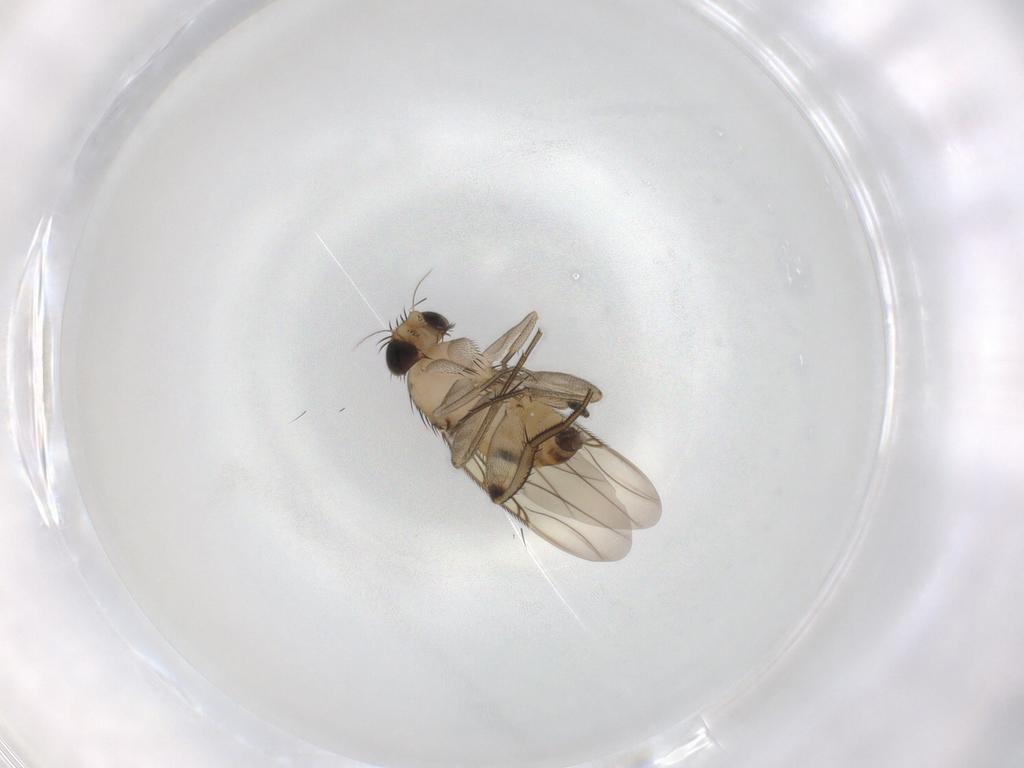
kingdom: Animalia
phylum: Arthropoda
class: Insecta
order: Diptera
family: Phoridae
